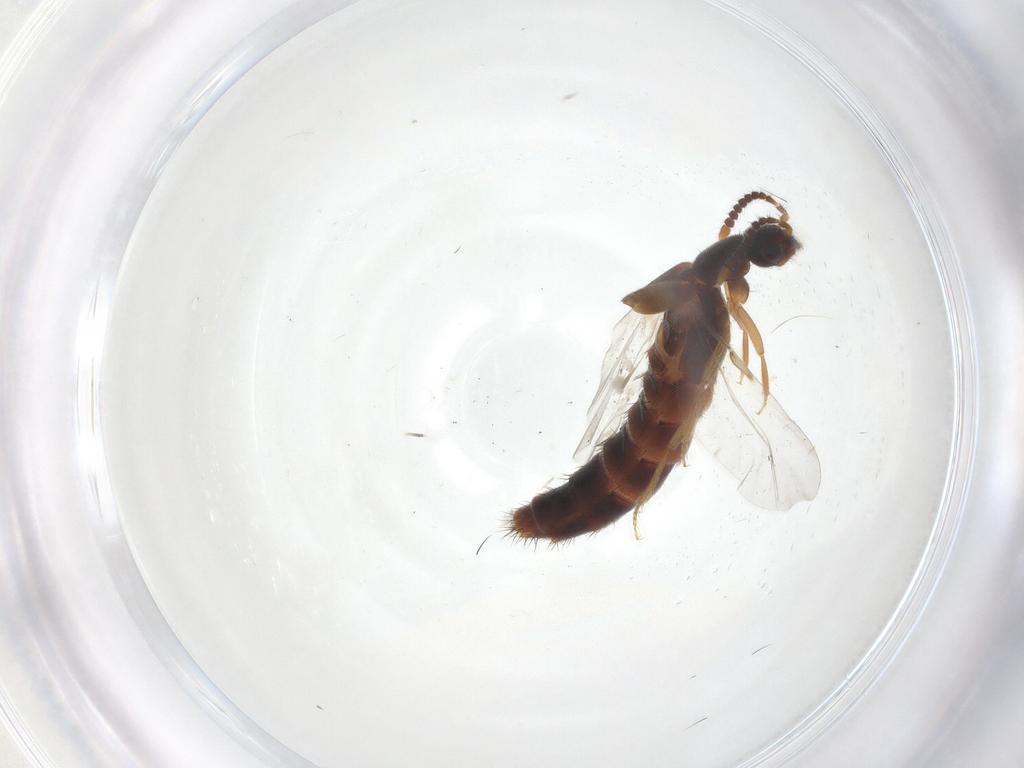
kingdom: Animalia
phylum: Arthropoda
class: Insecta
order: Coleoptera
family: Staphylinidae
